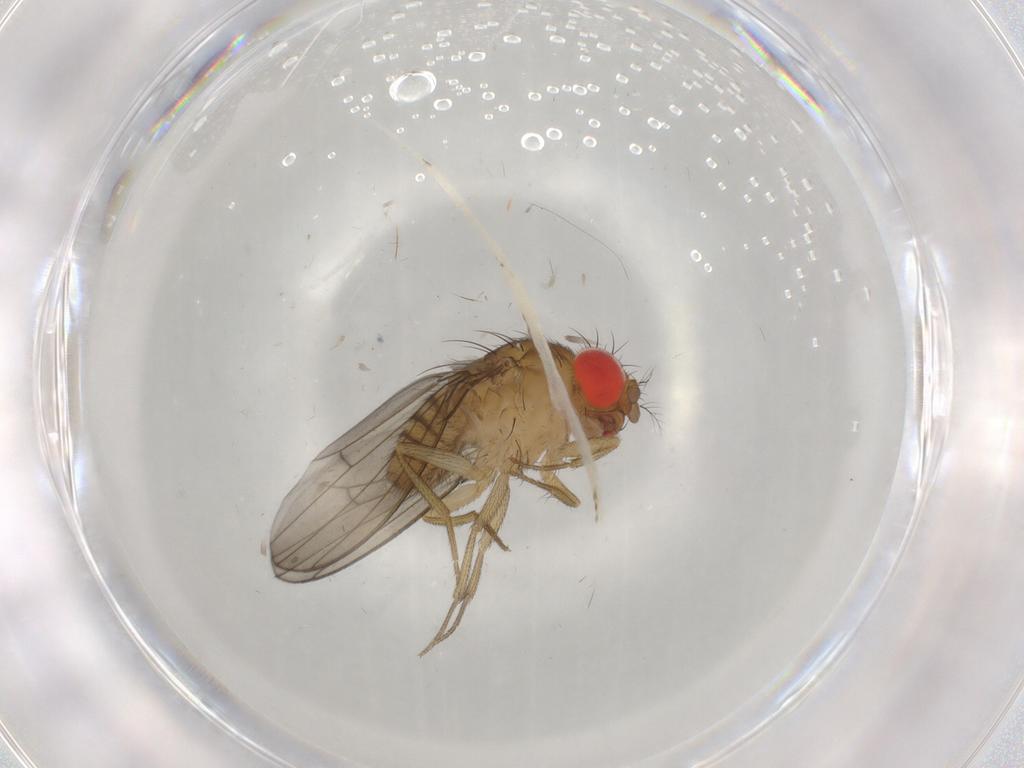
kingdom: Animalia
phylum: Arthropoda
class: Insecta
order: Diptera
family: Drosophilidae
